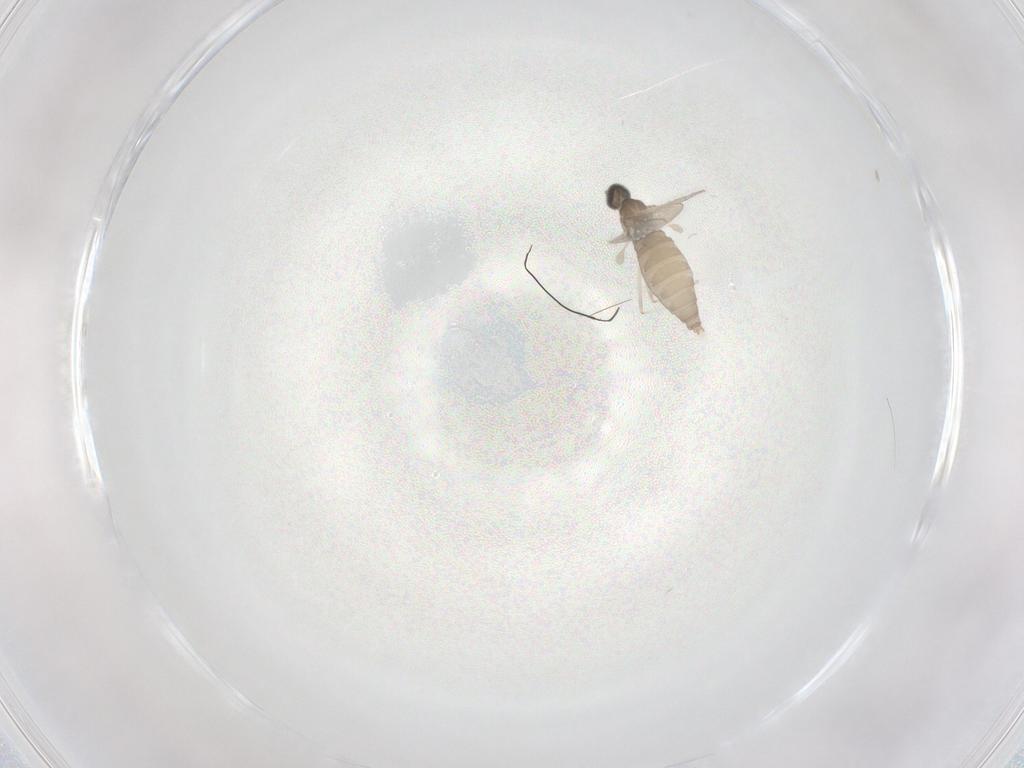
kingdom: Animalia
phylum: Arthropoda
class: Insecta
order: Diptera
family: Cecidomyiidae
